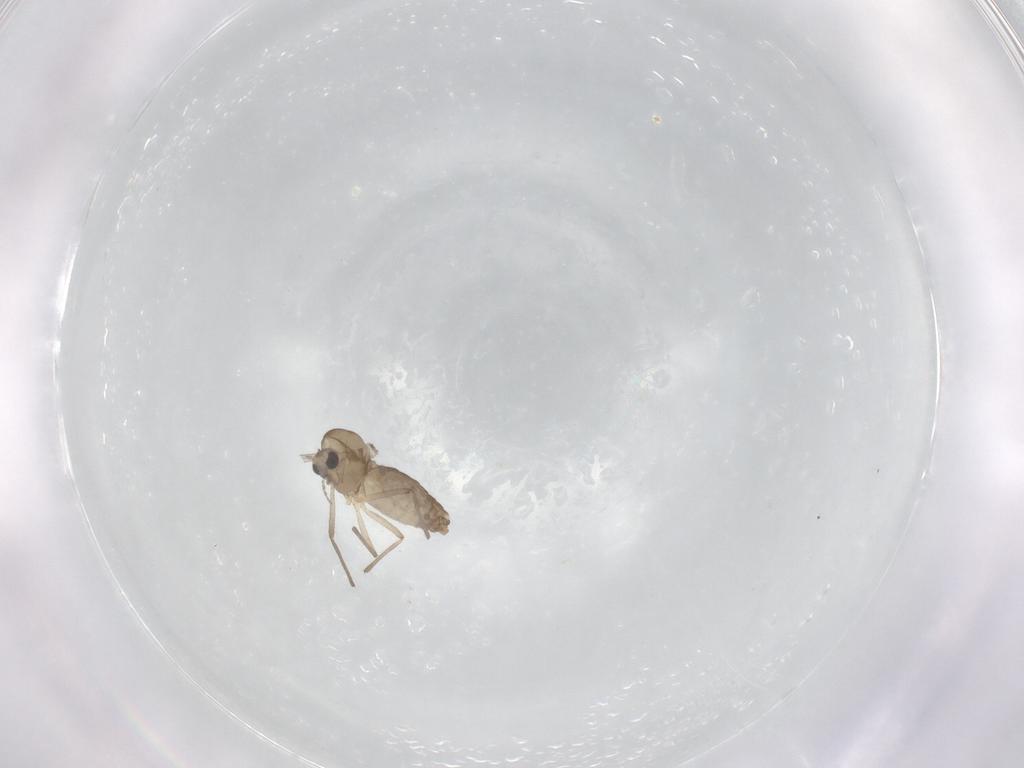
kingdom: Animalia
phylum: Arthropoda
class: Insecta
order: Diptera
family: Chironomidae
